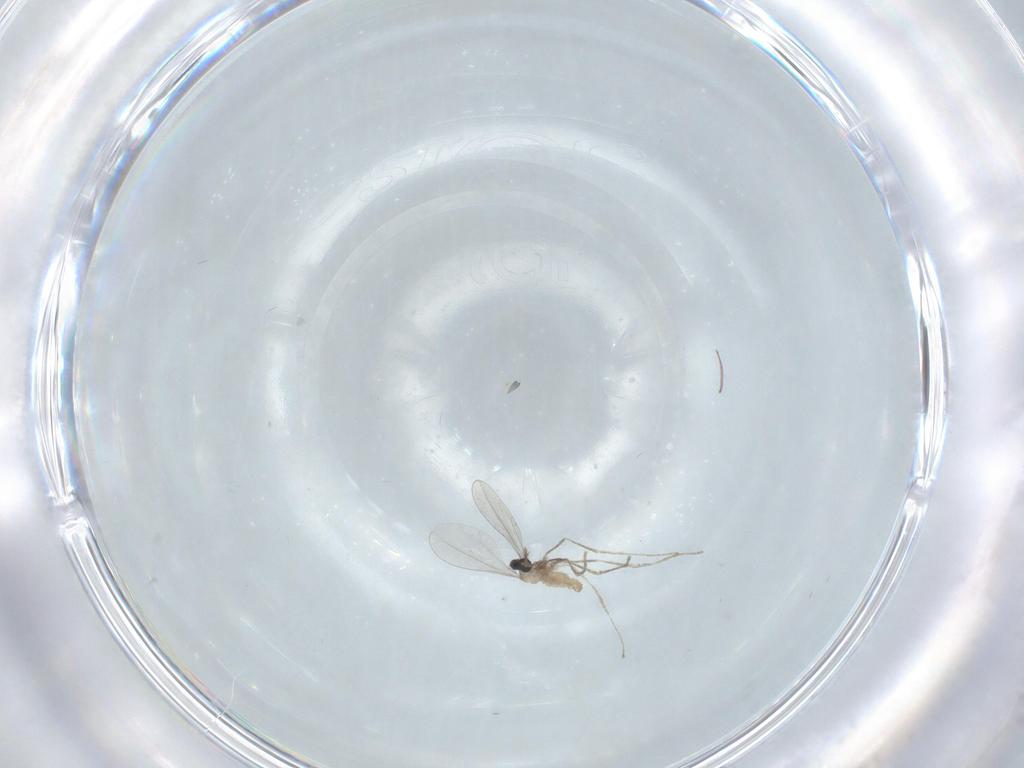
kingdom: Animalia
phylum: Arthropoda
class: Insecta
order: Diptera
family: Cecidomyiidae
